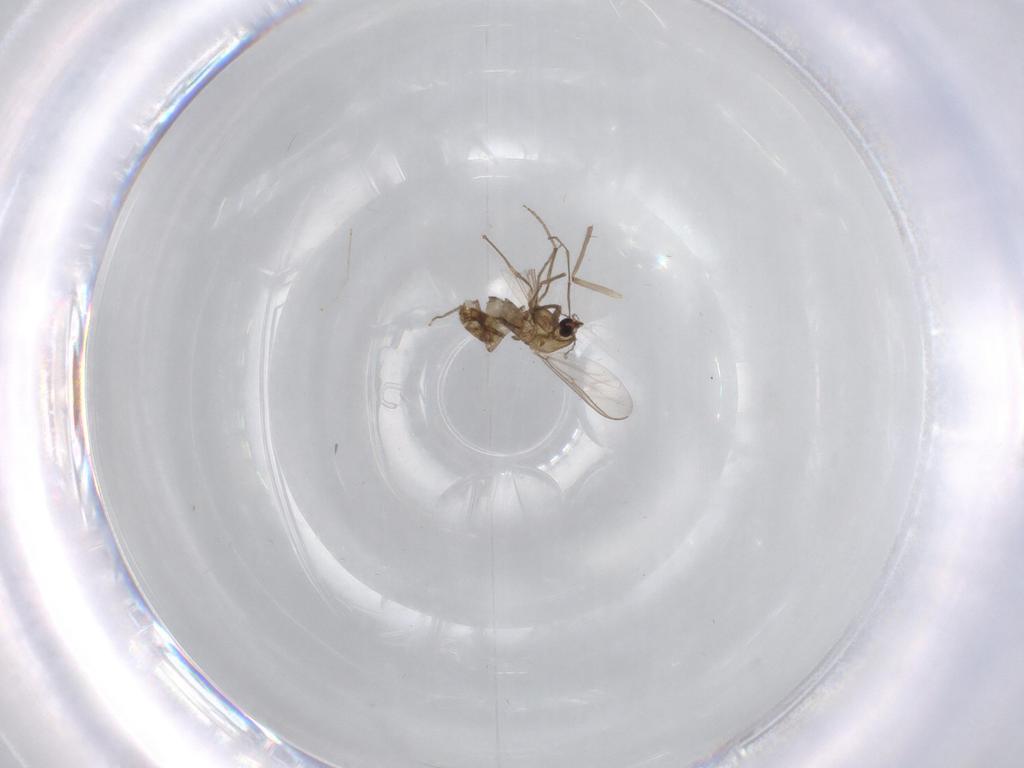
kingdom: Animalia
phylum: Arthropoda
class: Insecta
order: Diptera
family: Chironomidae
